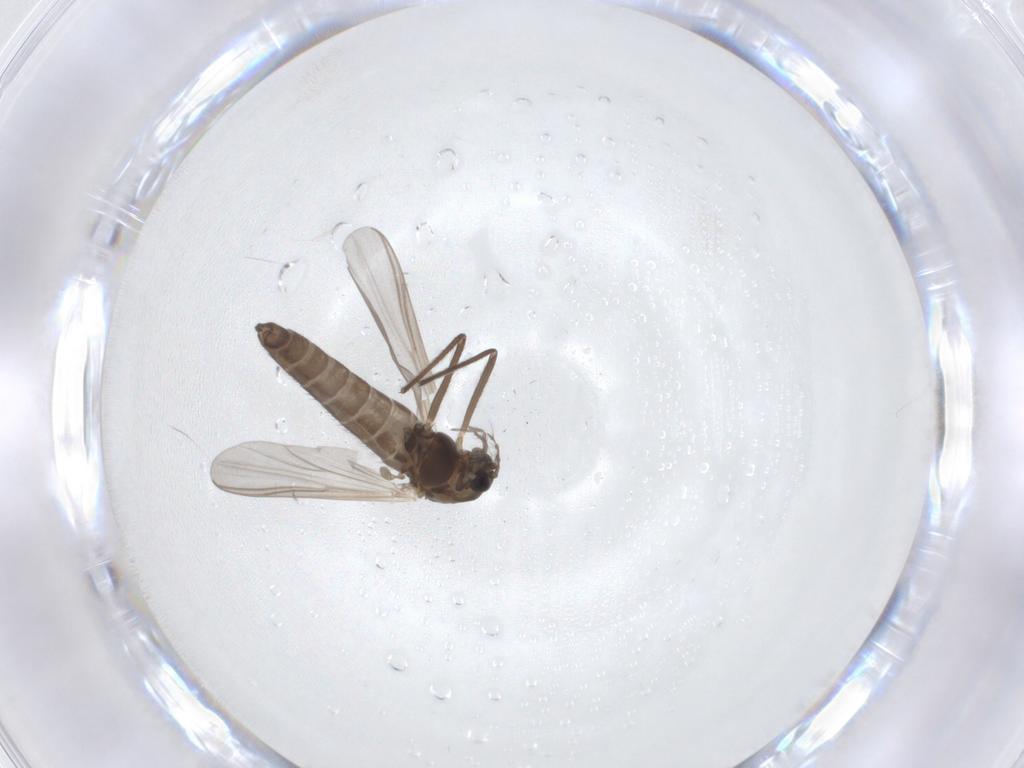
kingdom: Animalia
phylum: Arthropoda
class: Insecta
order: Diptera
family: Chironomidae
